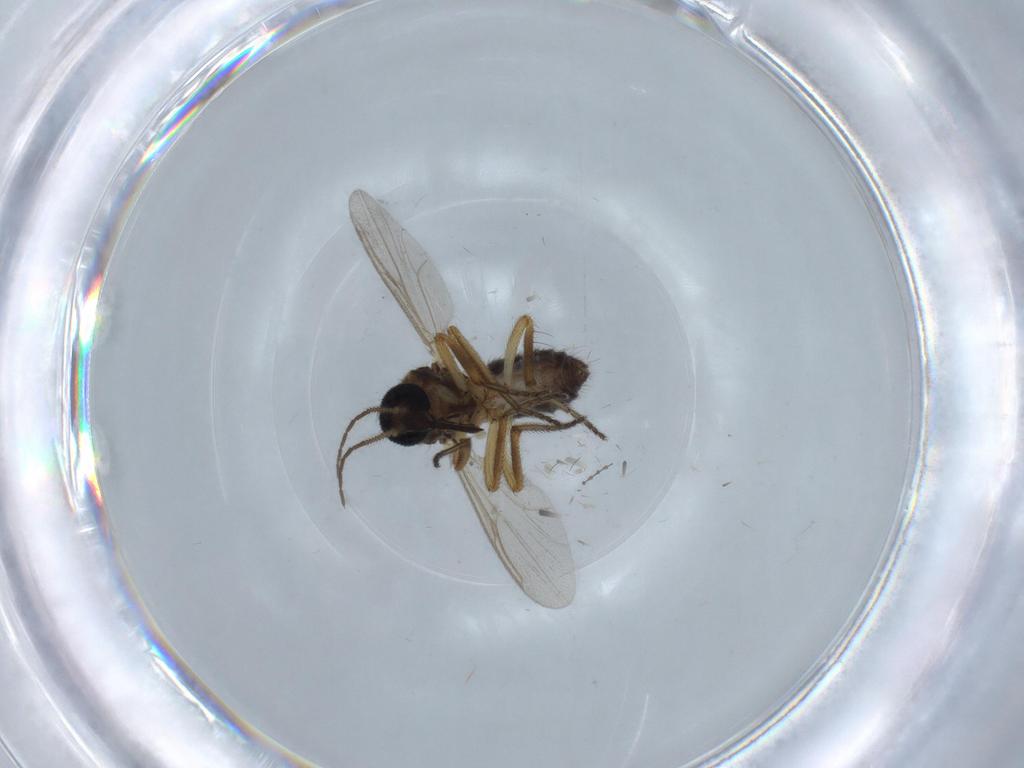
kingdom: Animalia
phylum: Arthropoda
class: Insecta
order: Diptera
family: Ceratopogonidae
